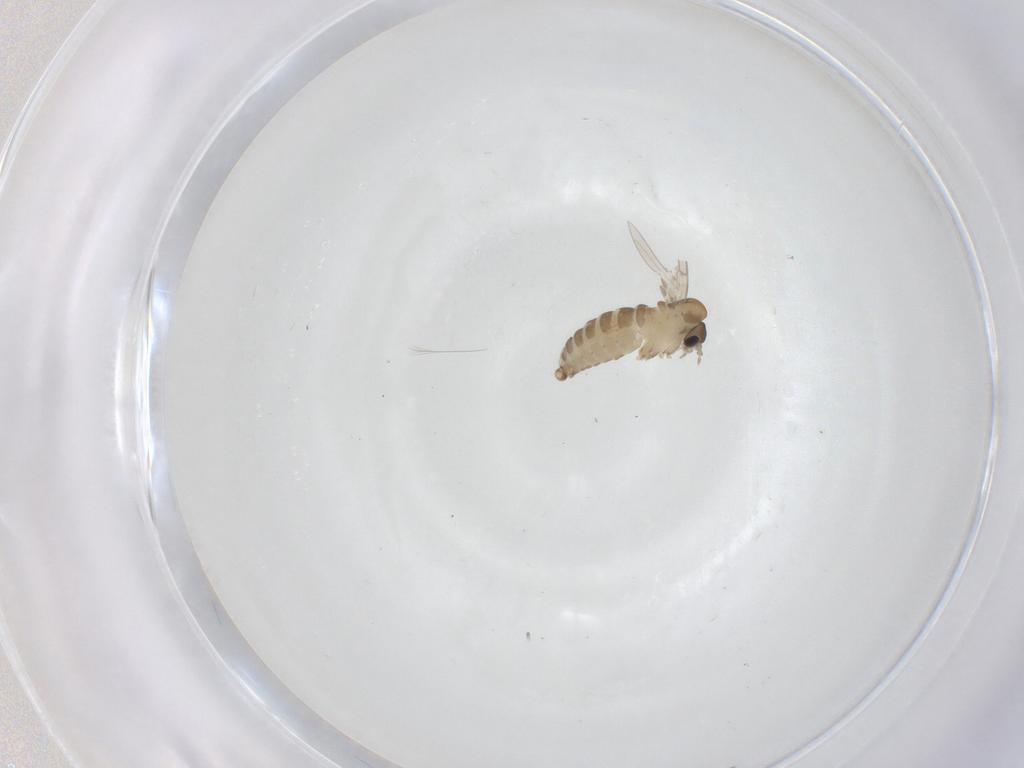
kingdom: Animalia
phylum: Arthropoda
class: Insecta
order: Diptera
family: Psychodidae
